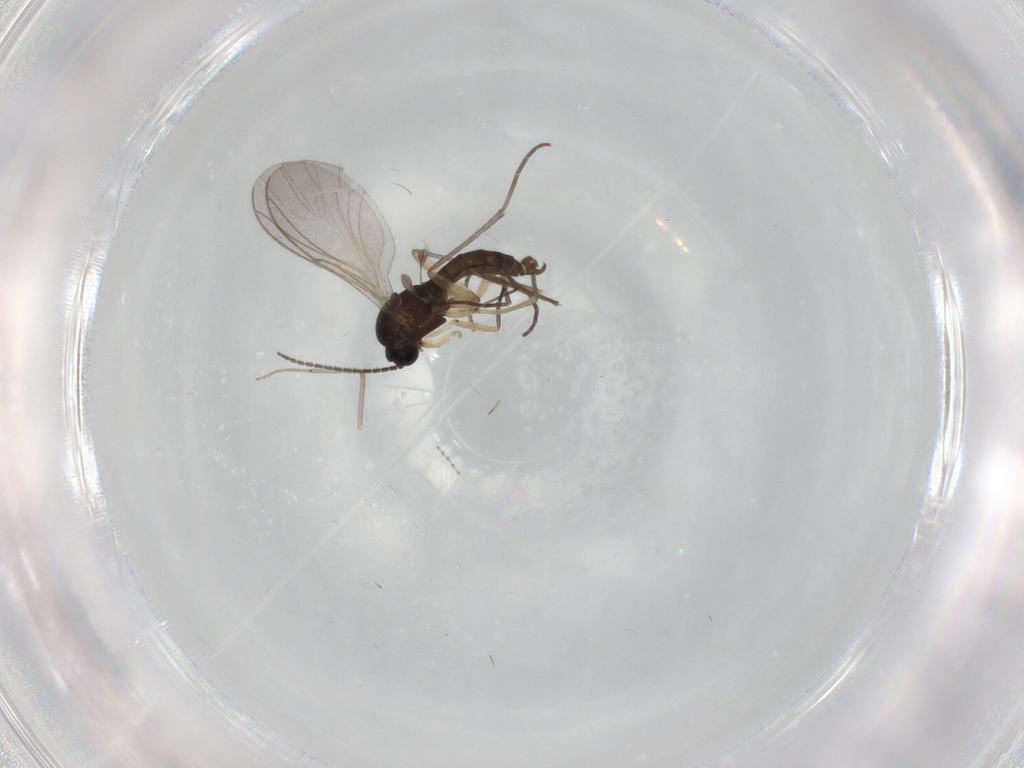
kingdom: Animalia
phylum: Arthropoda
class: Insecta
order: Diptera
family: Sciaridae
